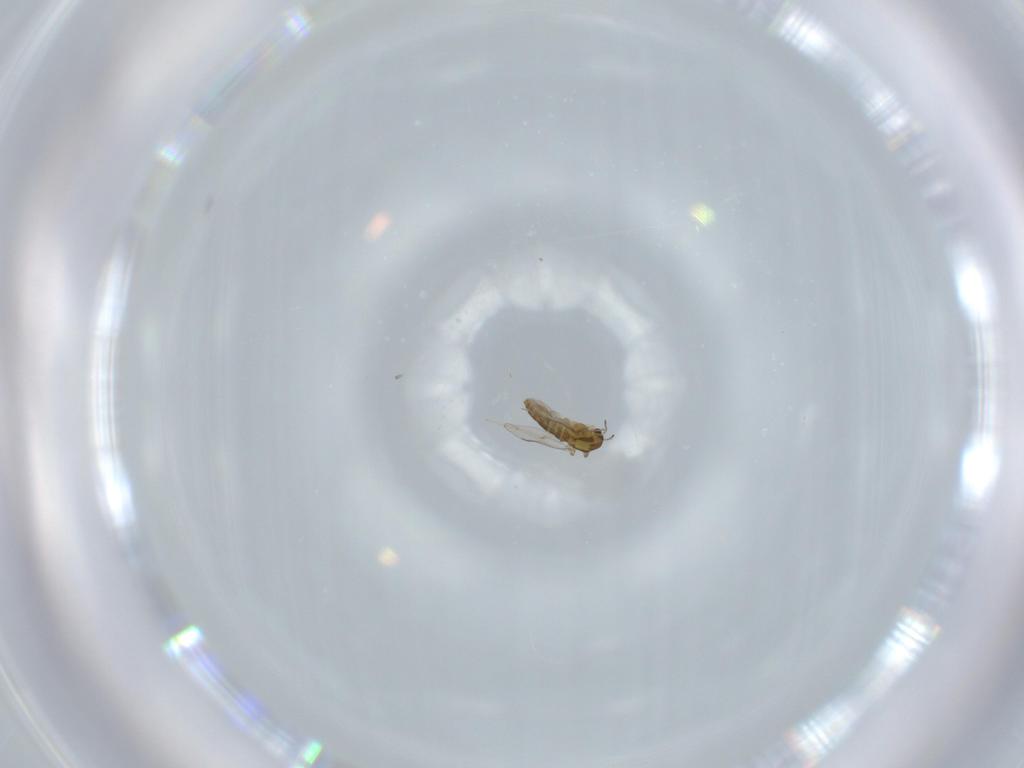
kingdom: Animalia
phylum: Arthropoda
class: Insecta
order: Diptera
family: Chironomidae
